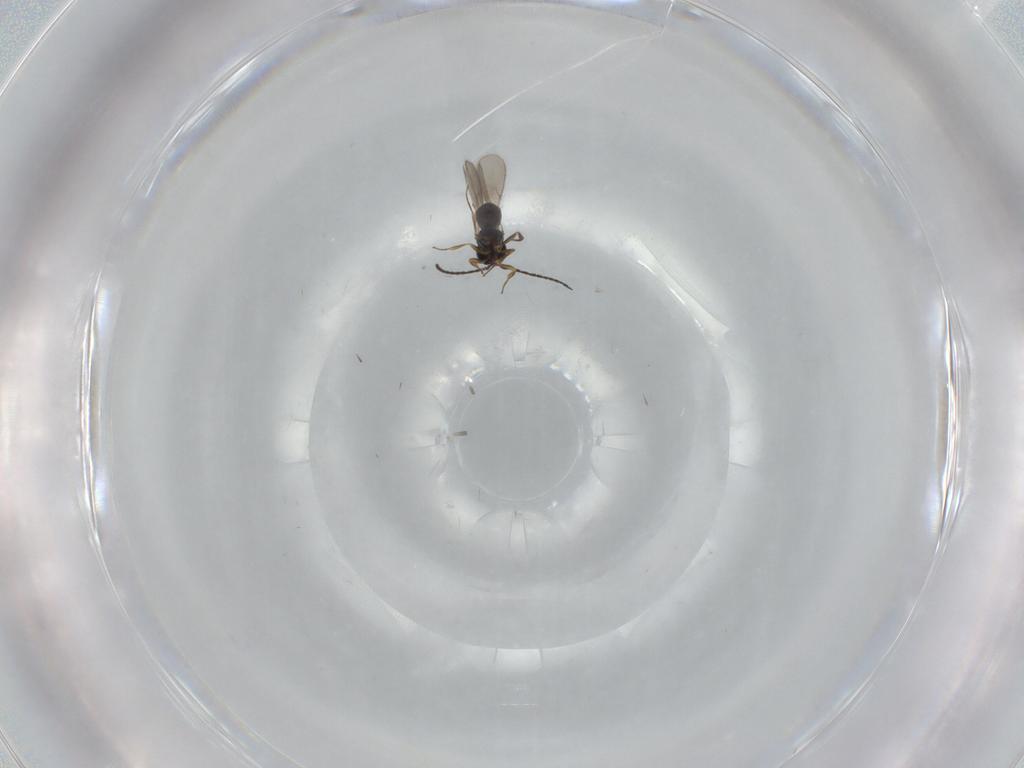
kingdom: Animalia
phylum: Arthropoda
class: Insecta
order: Hymenoptera
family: Scelionidae
